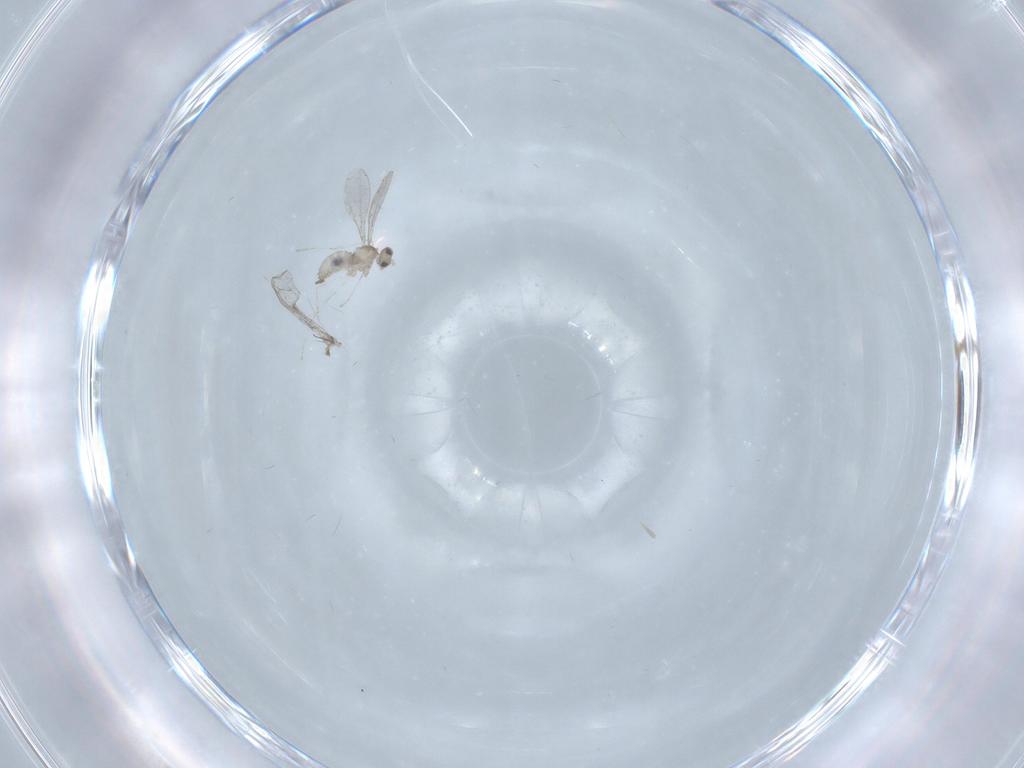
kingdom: Animalia
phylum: Arthropoda
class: Insecta
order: Diptera
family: Cecidomyiidae
